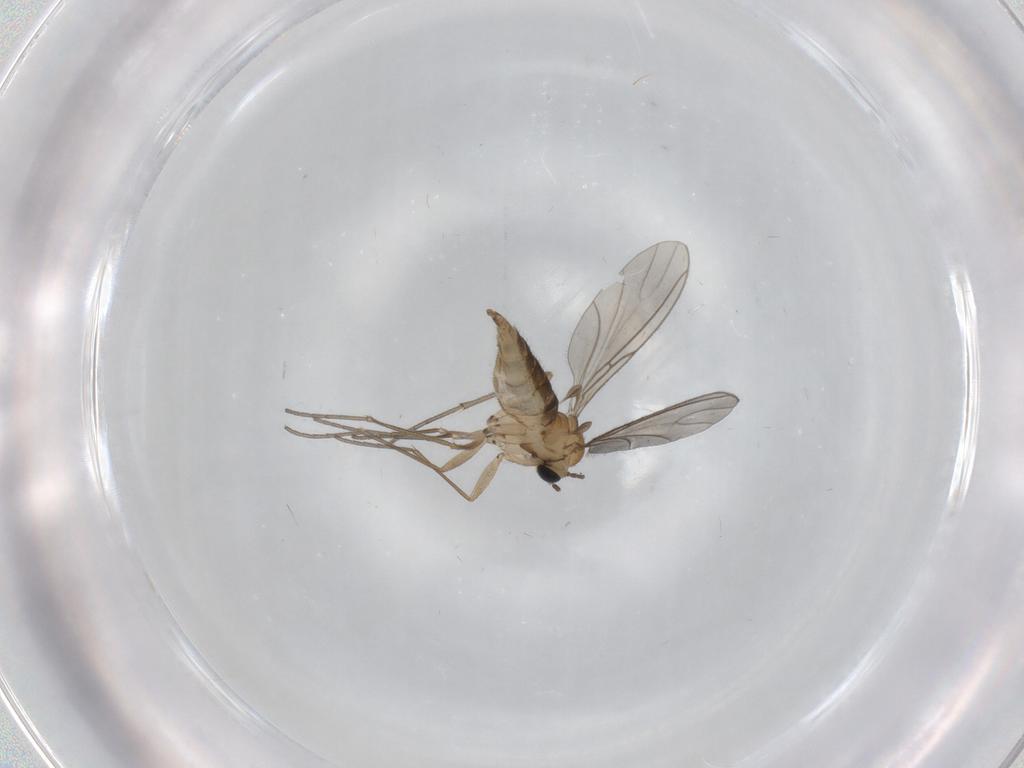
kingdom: Animalia
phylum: Arthropoda
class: Insecta
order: Diptera
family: Sciaridae
